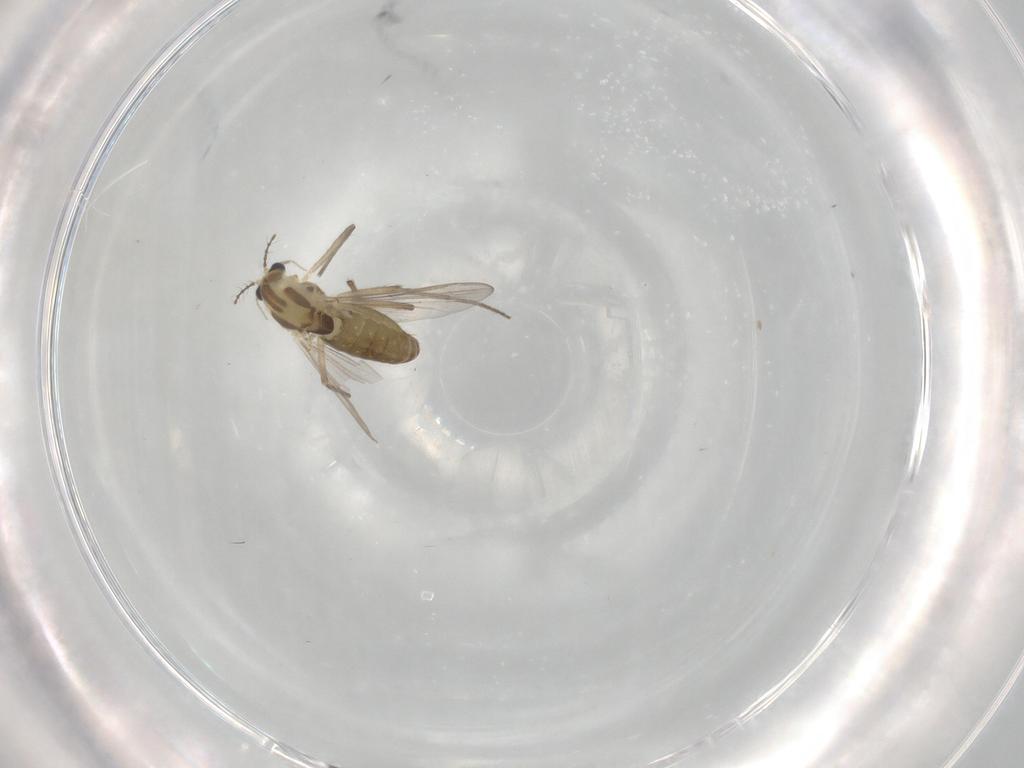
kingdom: Animalia
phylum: Arthropoda
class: Insecta
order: Diptera
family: Chironomidae
